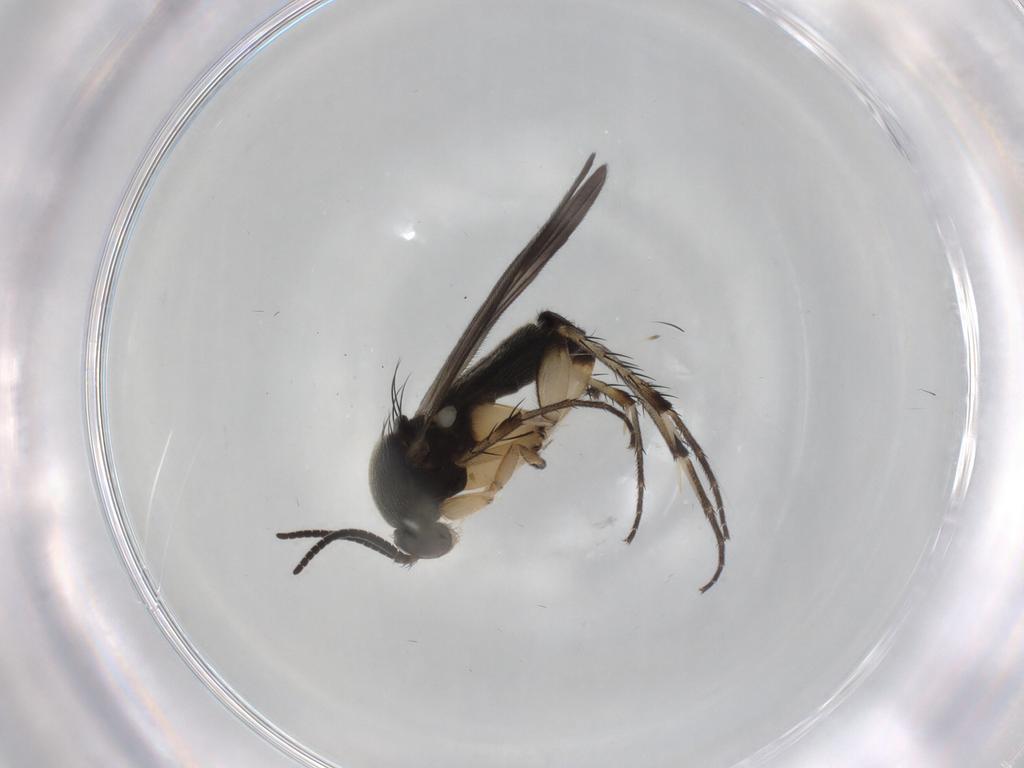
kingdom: Animalia
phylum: Arthropoda
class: Insecta
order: Diptera
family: Mycetophilidae
